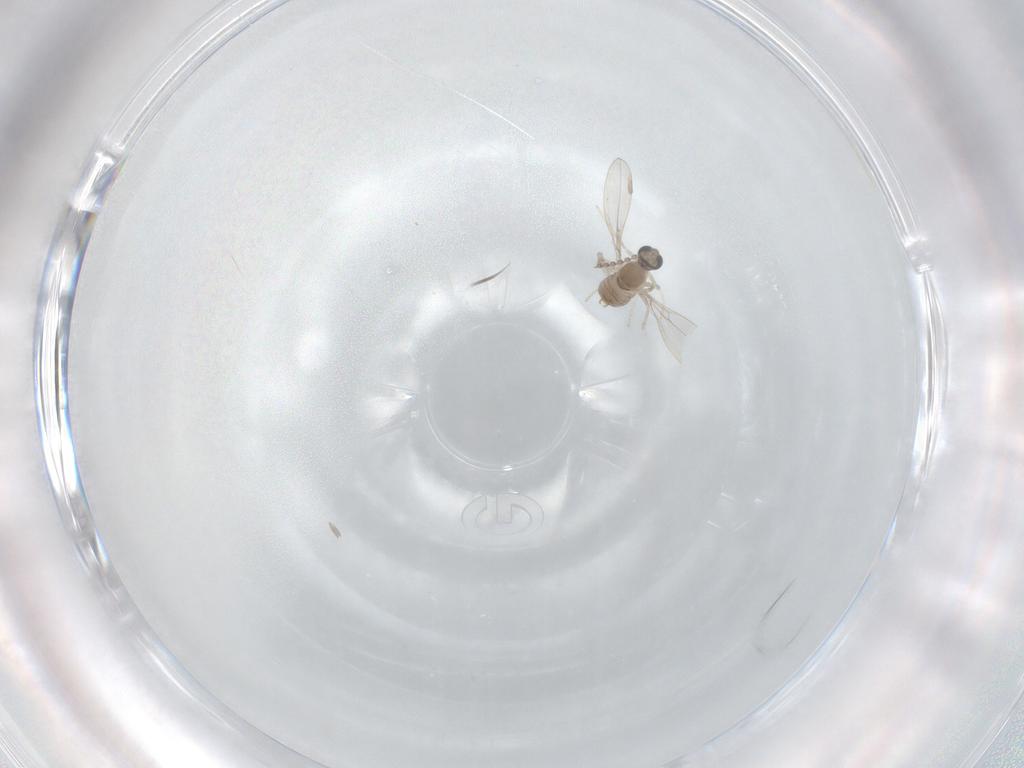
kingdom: Animalia
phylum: Arthropoda
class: Insecta
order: Diptera
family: Cecidomyiidae
